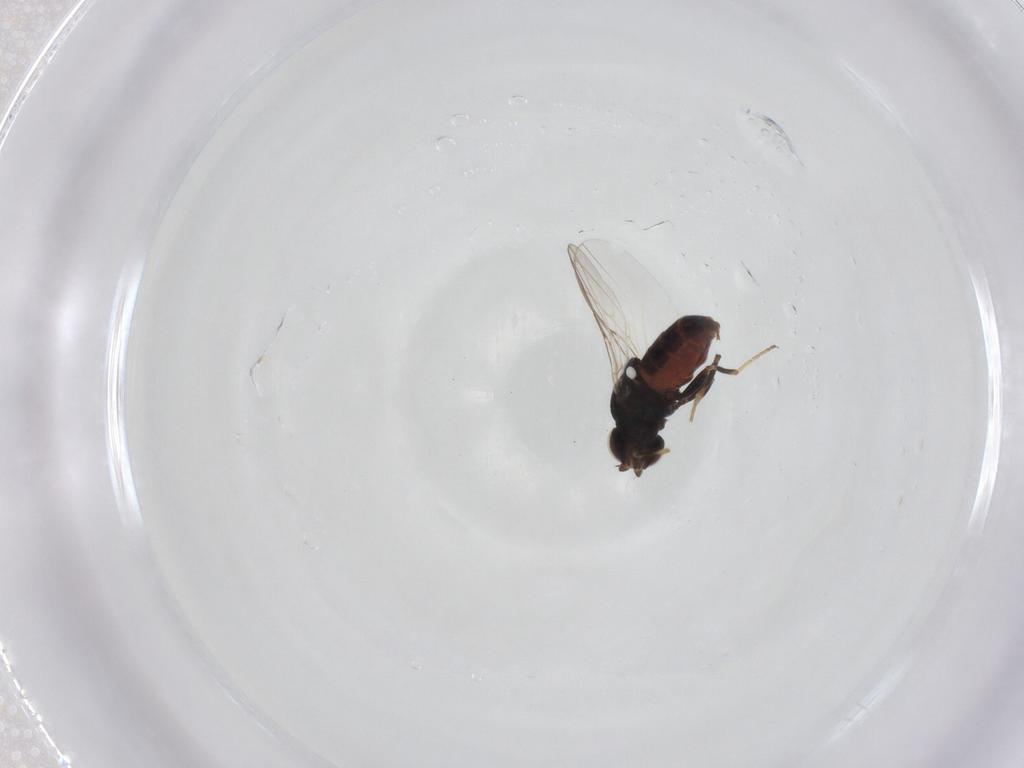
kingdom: Animalia
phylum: Arthropoda
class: Insecta
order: Diptera
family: Chloropidae
